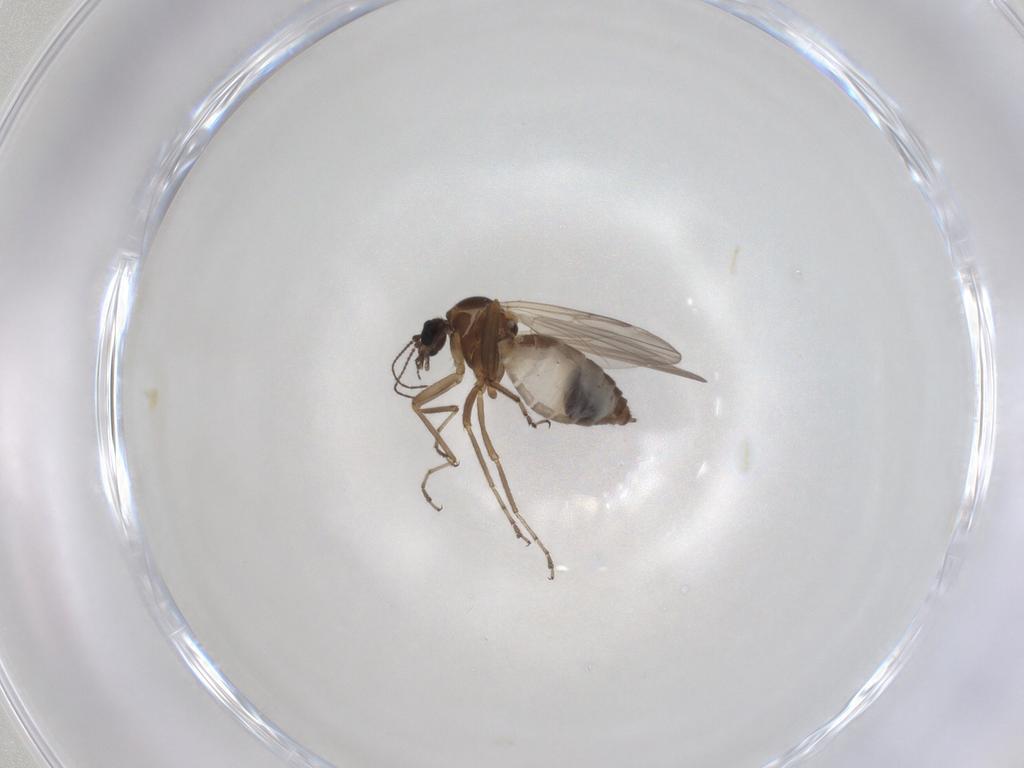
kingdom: Animalia
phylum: Arthropoda
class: Insecta
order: Diptera
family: Ceratopogonidae
